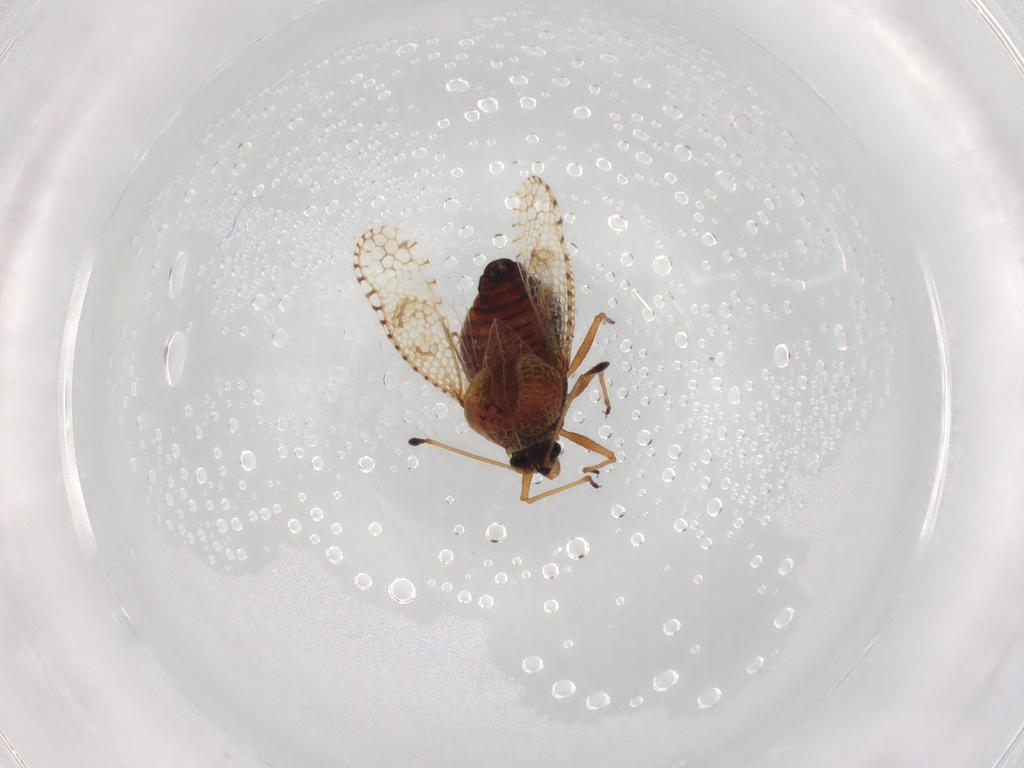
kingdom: Animalia
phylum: Arthropoda
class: Insecta
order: Hemiptera
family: Tingidae
